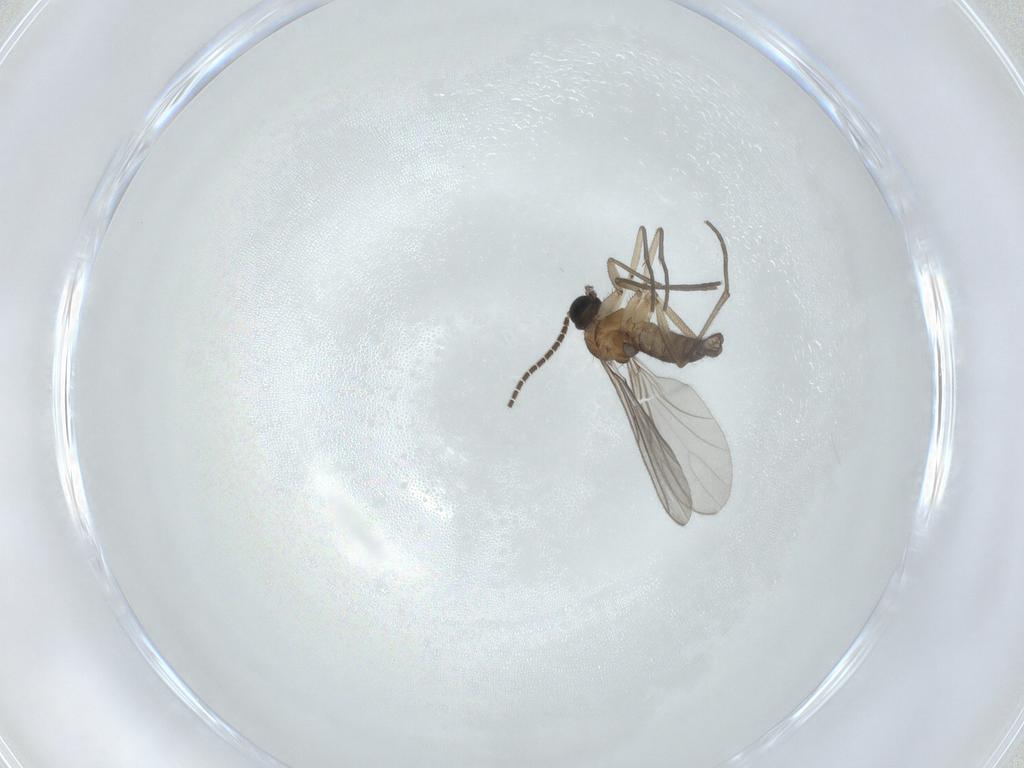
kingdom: Animalia
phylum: Arthropoda
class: Insecta
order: Diptera
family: Sciaridae
